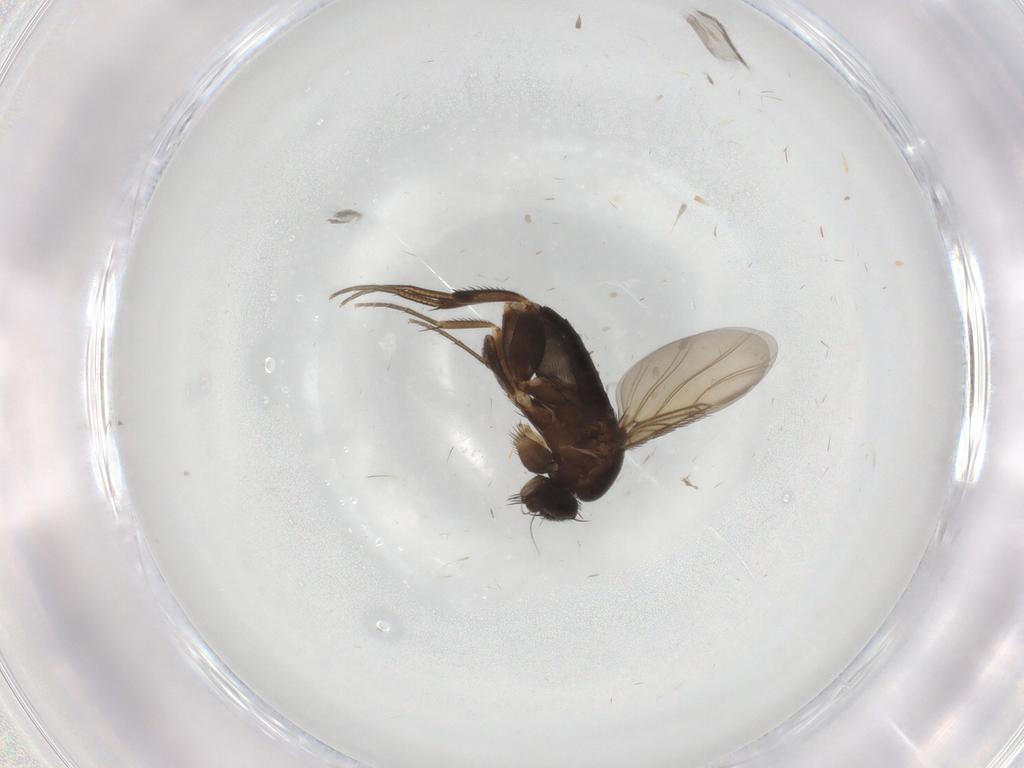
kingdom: Animalia
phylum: Arthropoda
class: Insecta
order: Diptera
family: Phoridae
